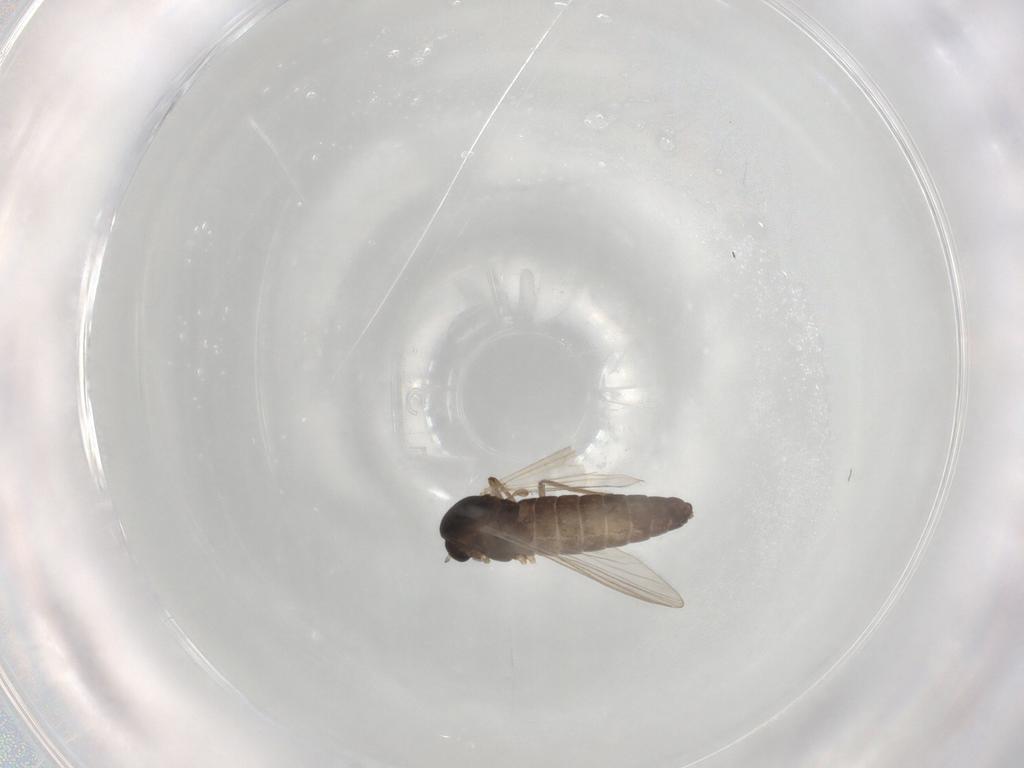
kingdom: Animalia
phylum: Arthropoda
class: Insecta
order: Diptera
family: Chironomidae
